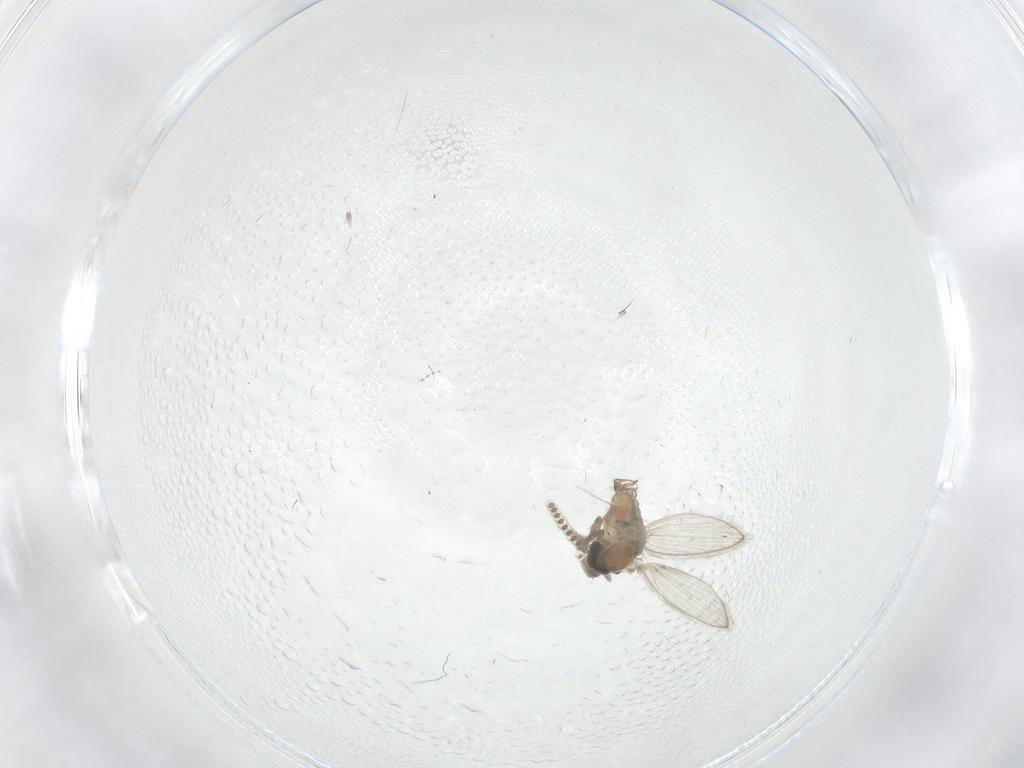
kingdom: Animalia
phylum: Arthropoda
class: Insecta
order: Diptera
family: Psychodidae
